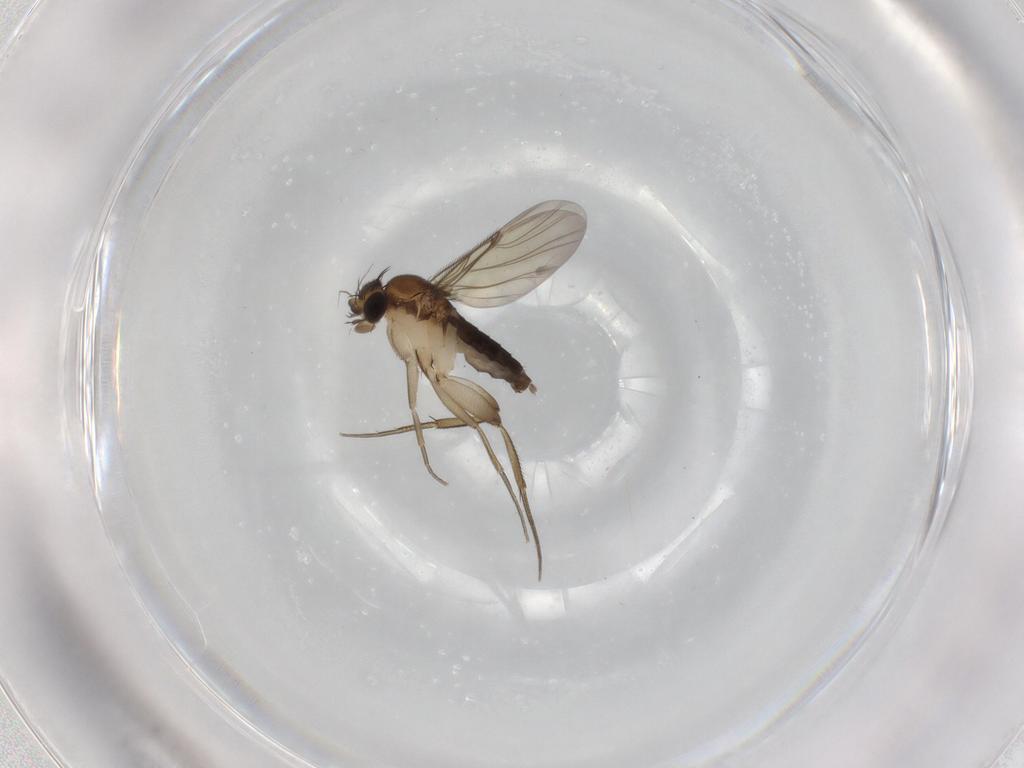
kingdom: Animalia
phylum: Arthropoda
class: Insecta
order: Diptera
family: Phoridae
